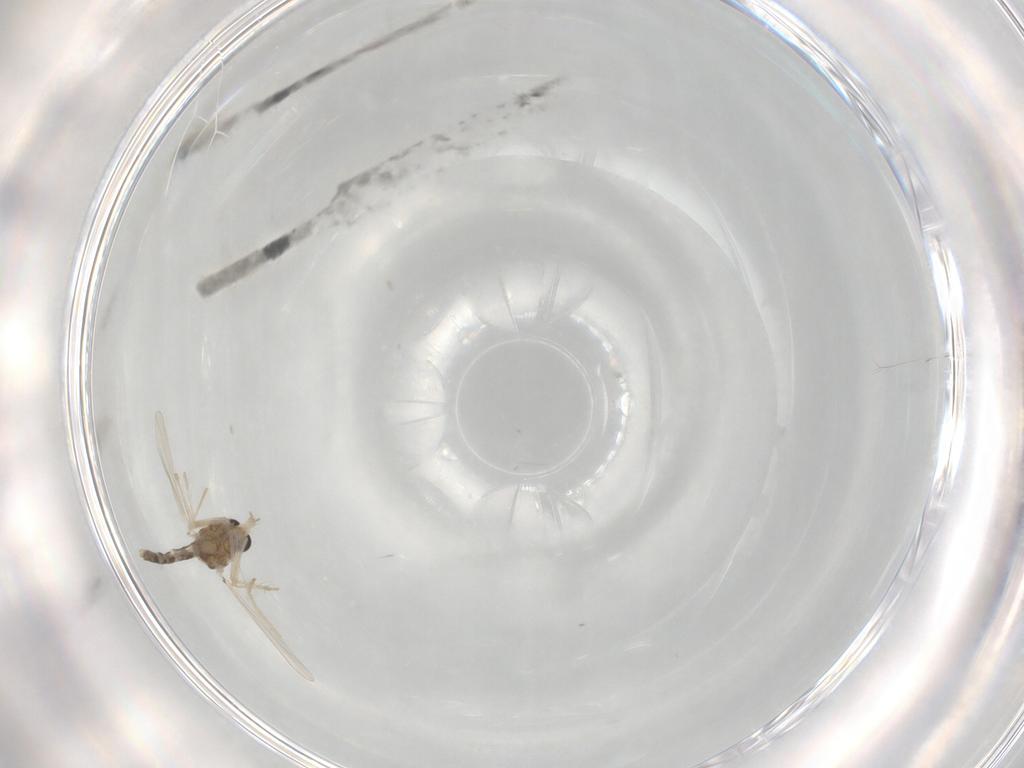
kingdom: Animalia
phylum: Arthropoda
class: Insecta
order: Diptera
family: Chironomidae
